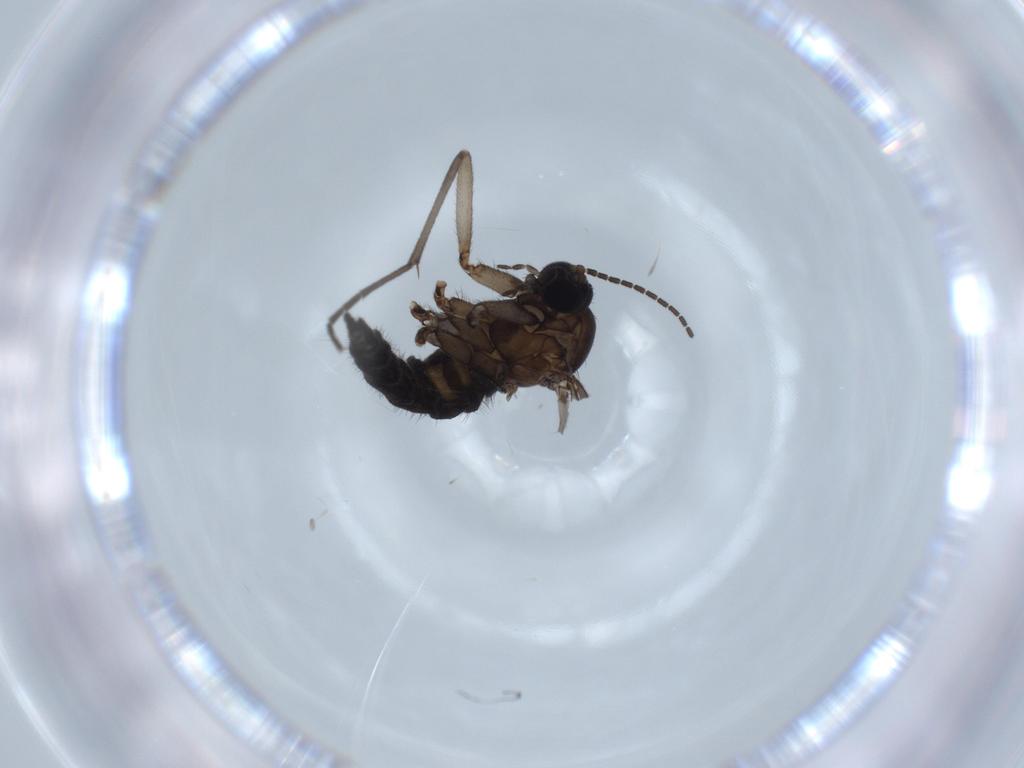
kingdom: Animalia
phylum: Arthropoda
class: Insecta
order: Diptera
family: Sciaridae
